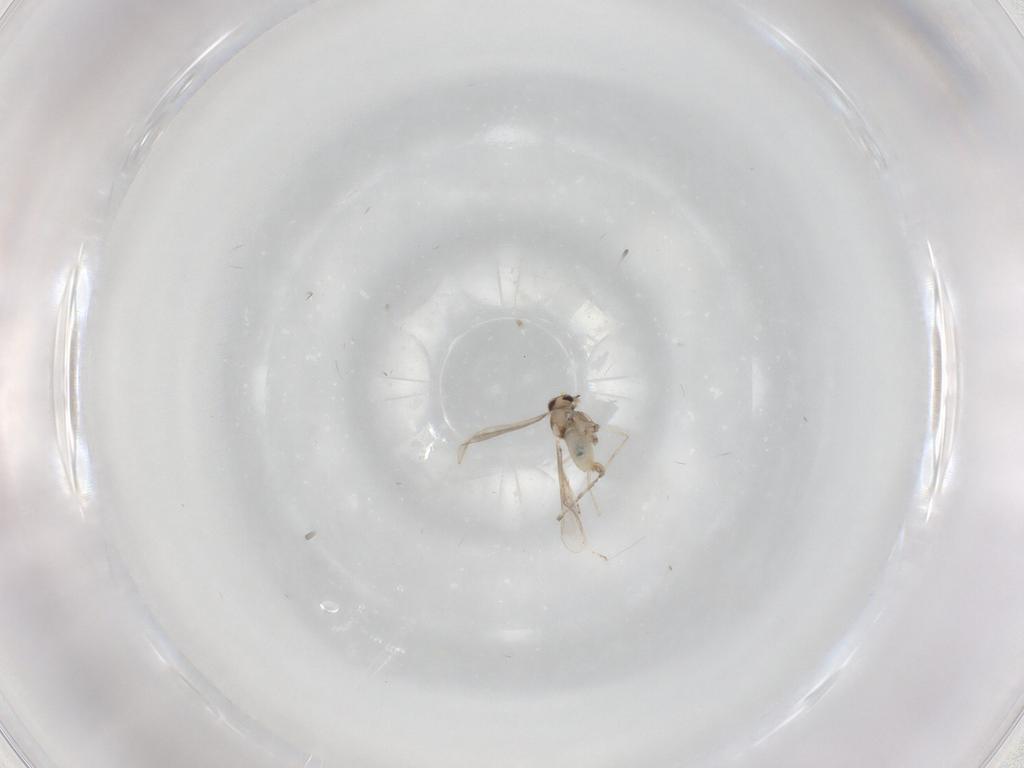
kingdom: Animalia
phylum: Arthropoda
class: Insecta
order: Diptera
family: Cecidomyiidae
